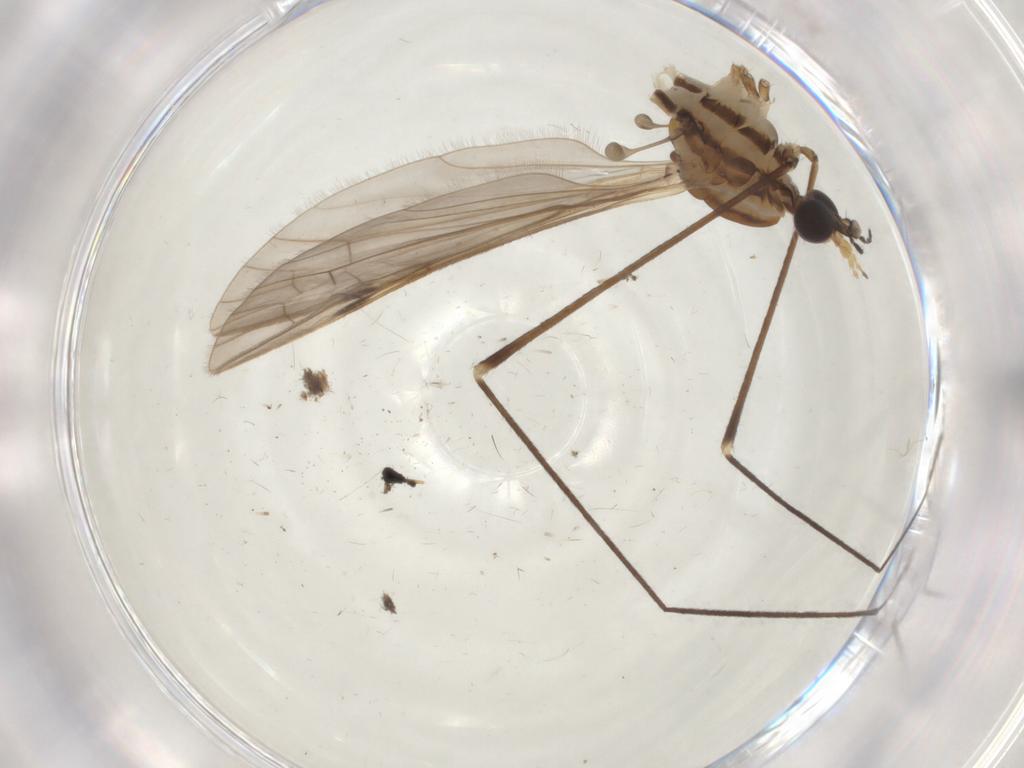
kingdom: Animalia
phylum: Arthropoda
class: Insecta
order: Diptera
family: Limoniidae
